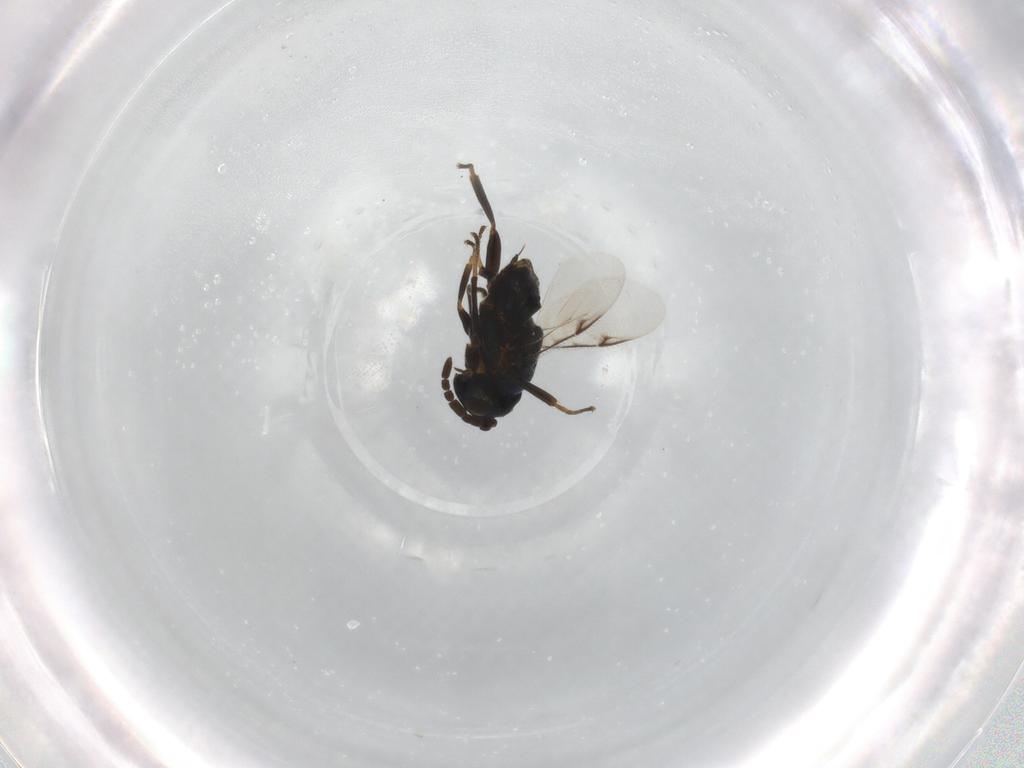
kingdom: Animalia
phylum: Arthropoda
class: Insecta
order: Hymenoptera
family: Encyrtidae
